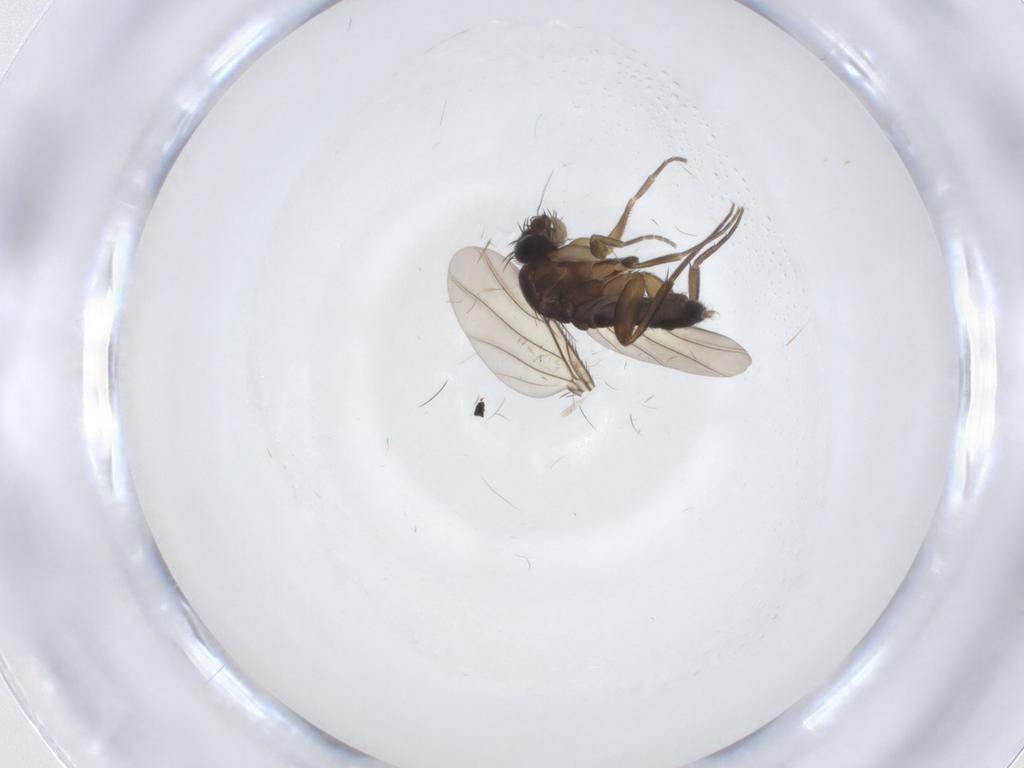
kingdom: Animalia
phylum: Arthropoda
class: Insecta
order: Diptera
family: Phoridae
